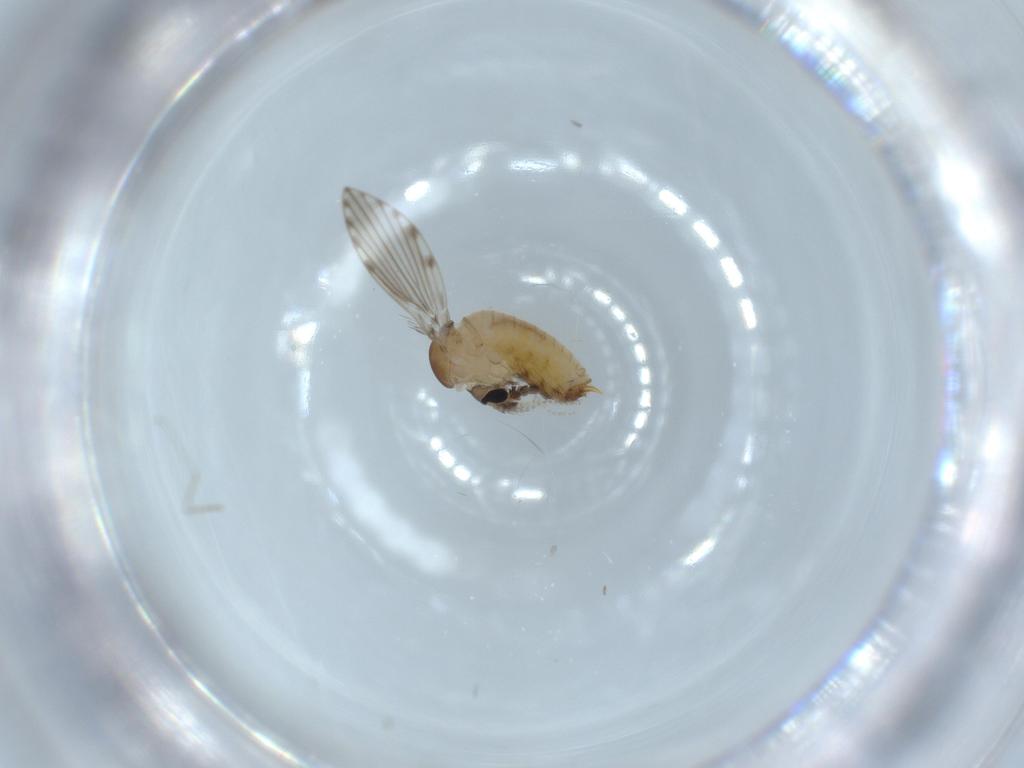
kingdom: Animalia
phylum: Arthropoda
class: Insecta
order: Diptera
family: Psychodidae
